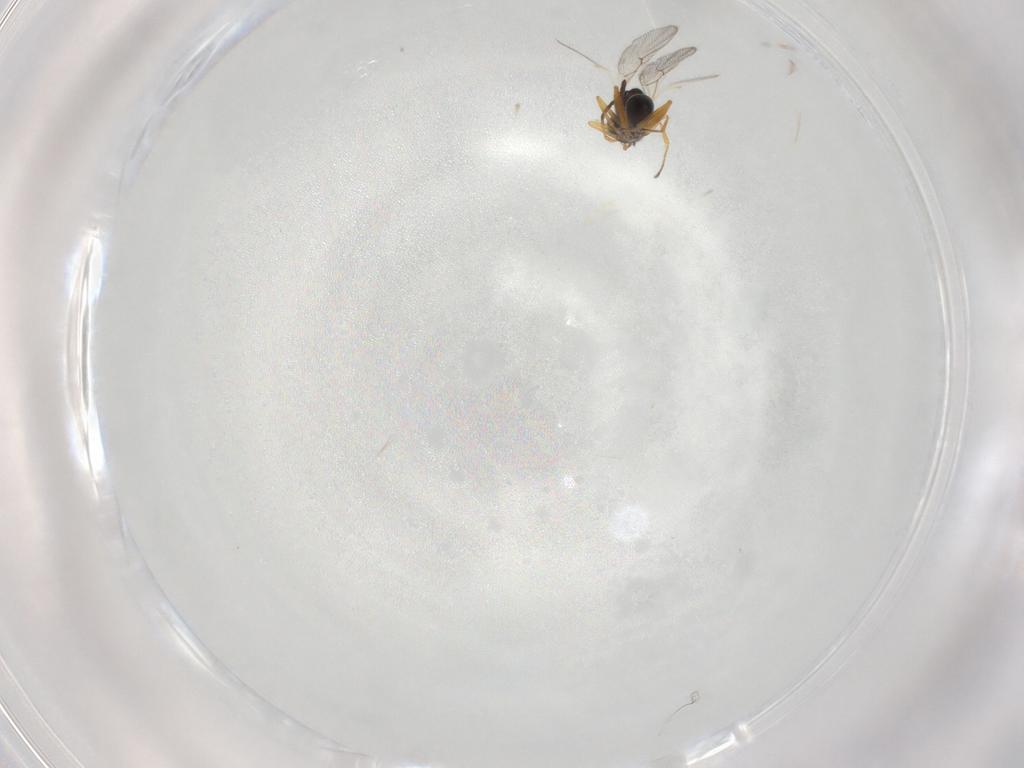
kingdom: Animalia
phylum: Arthropoda
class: Insecta
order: Hymenoptera
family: Figitidae
